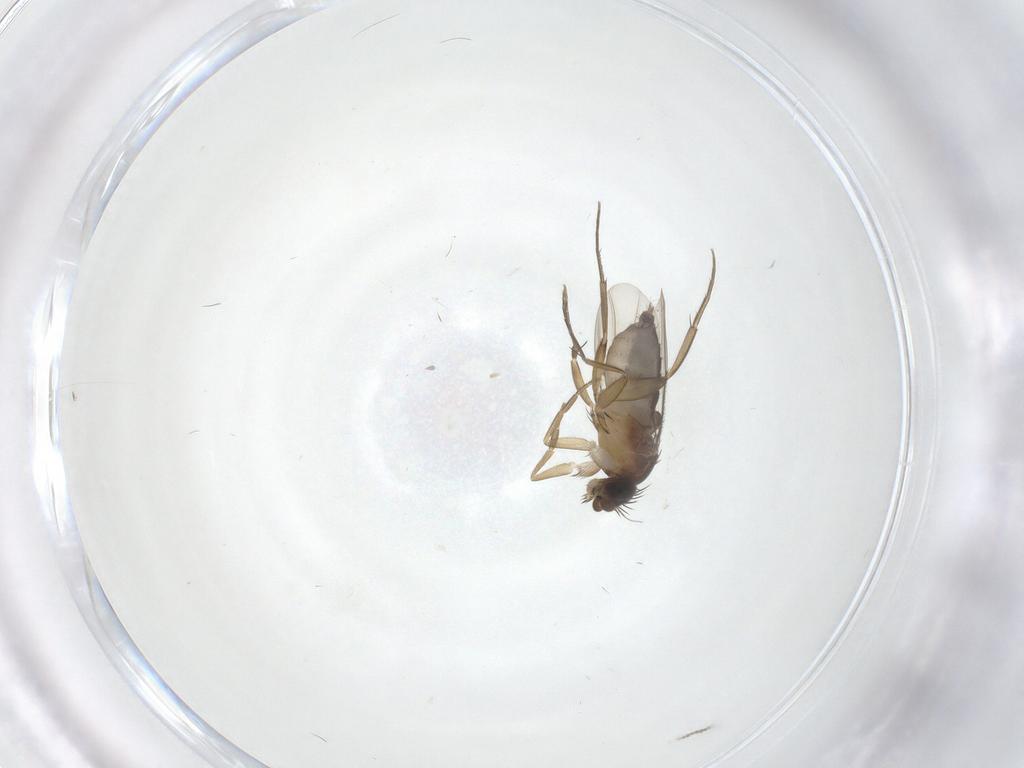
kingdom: Animalia
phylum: Arthropoda
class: Insecta
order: Diptera
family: Phoridae
